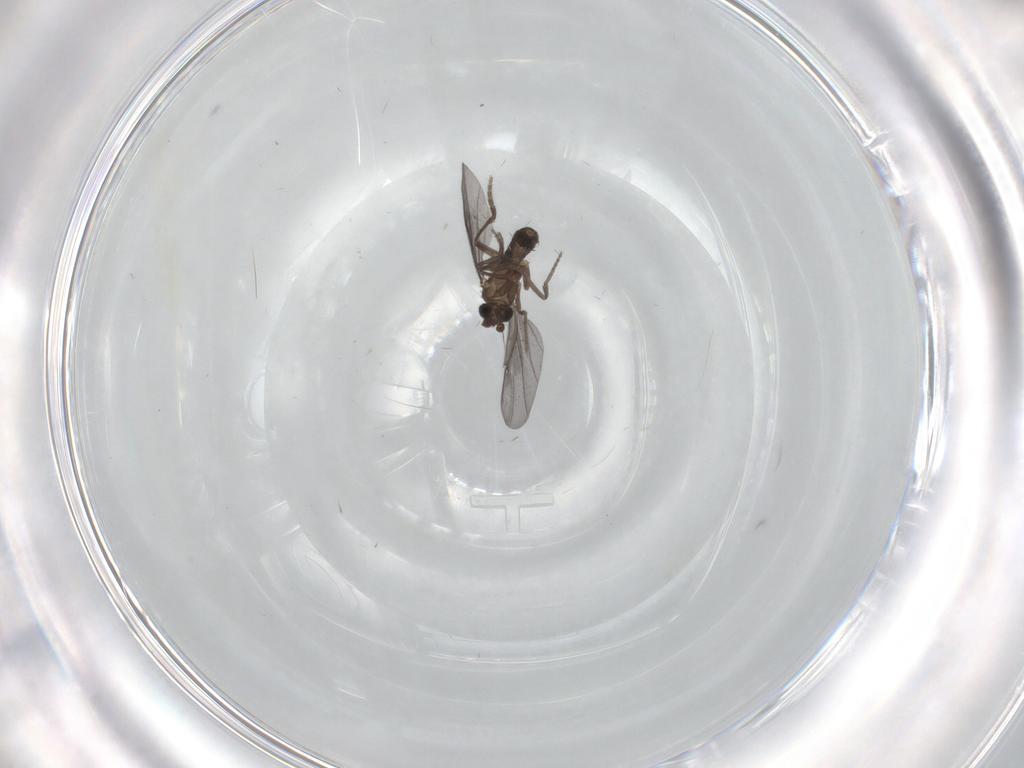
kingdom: Animalia
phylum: Arthropoda
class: Insecta
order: Diptera
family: Phoridae
